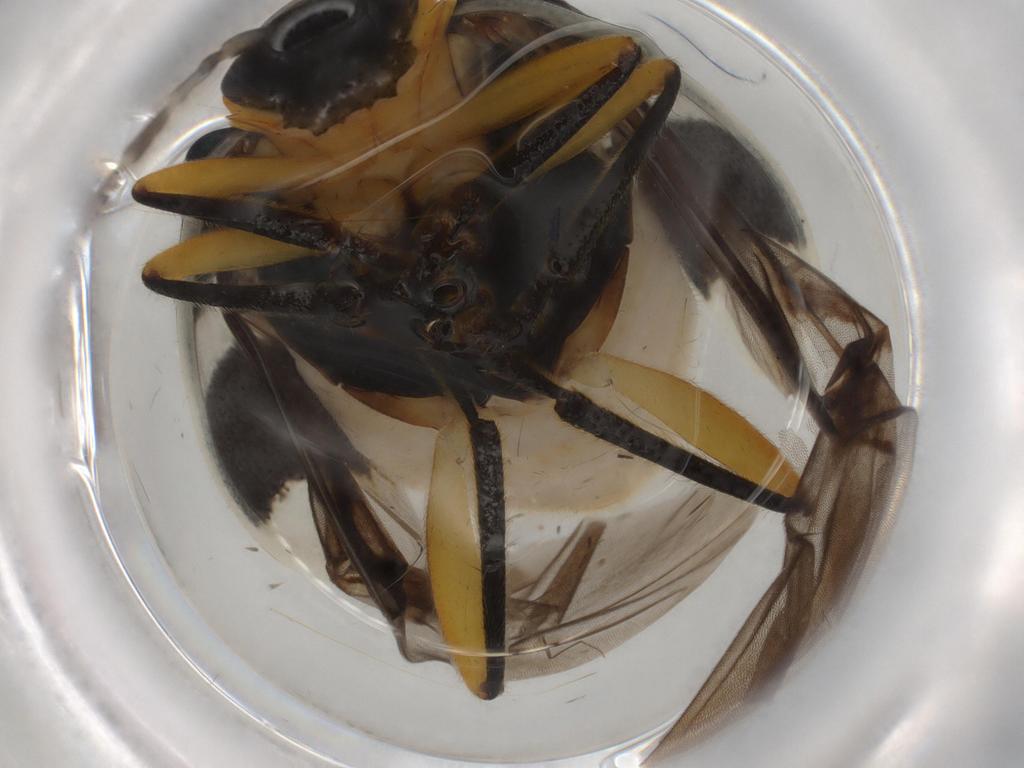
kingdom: Animalia
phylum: Arthropoda
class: Insecta
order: Coleoptera
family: Chrysomelidae
